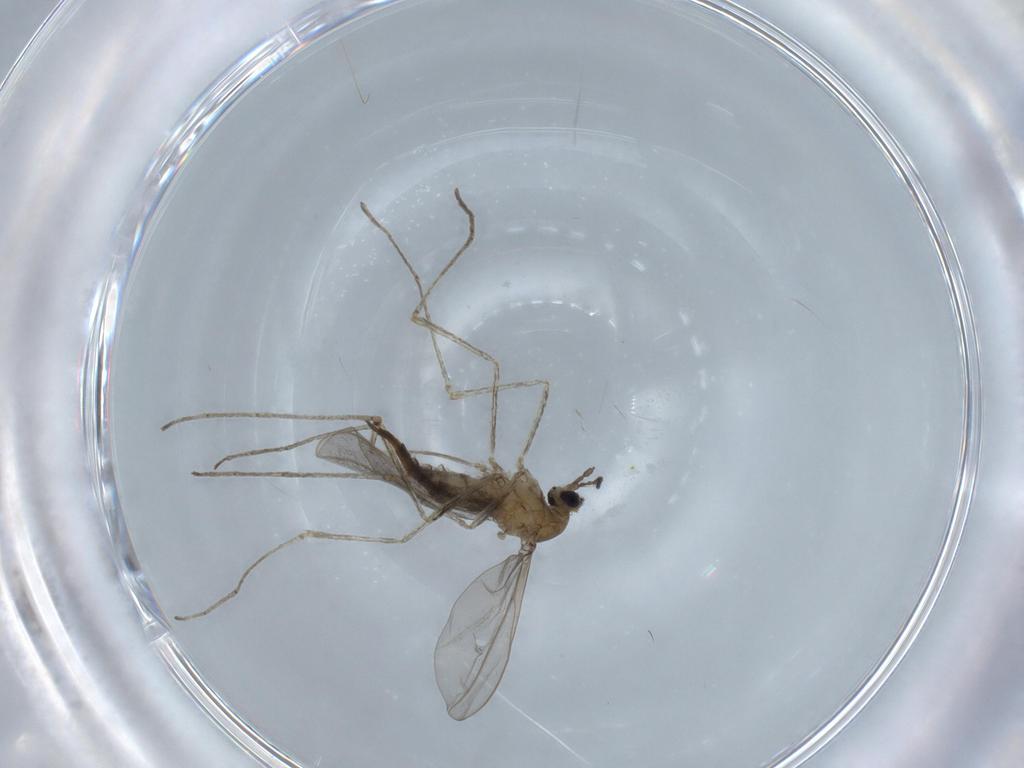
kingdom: Animalia
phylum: Arthropoda
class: Insecta
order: Diptera
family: Cecidomyiidae
